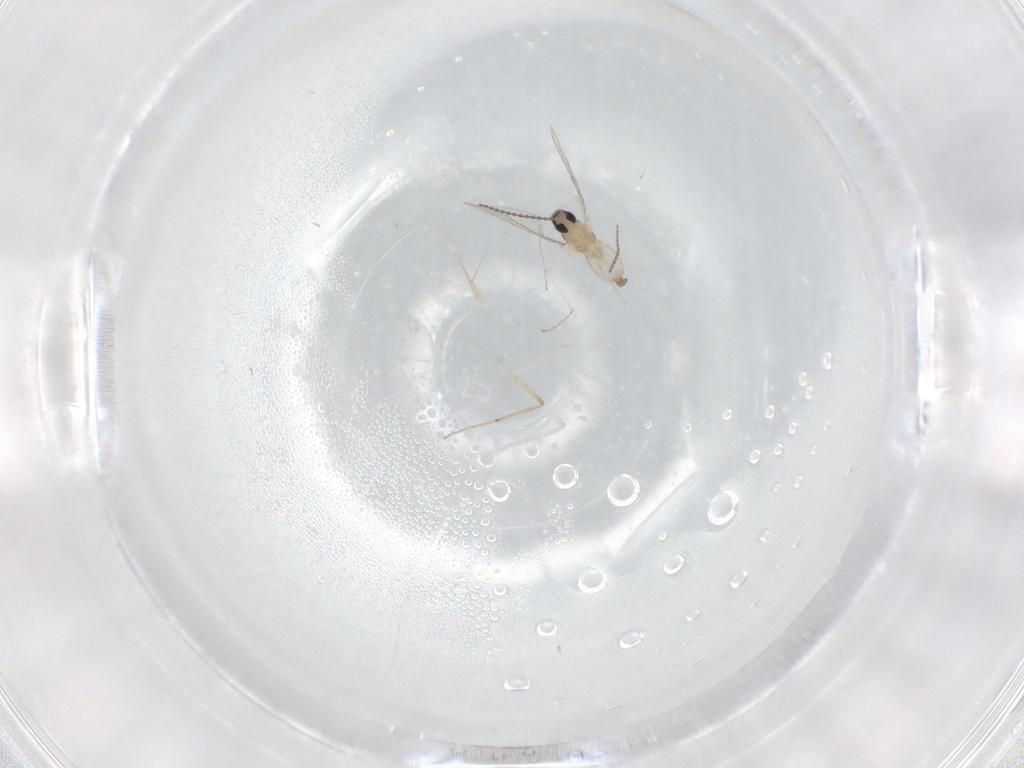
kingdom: Animalia
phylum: Arthropoda
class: Insecta
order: Diptera
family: Cecidomyiidae
